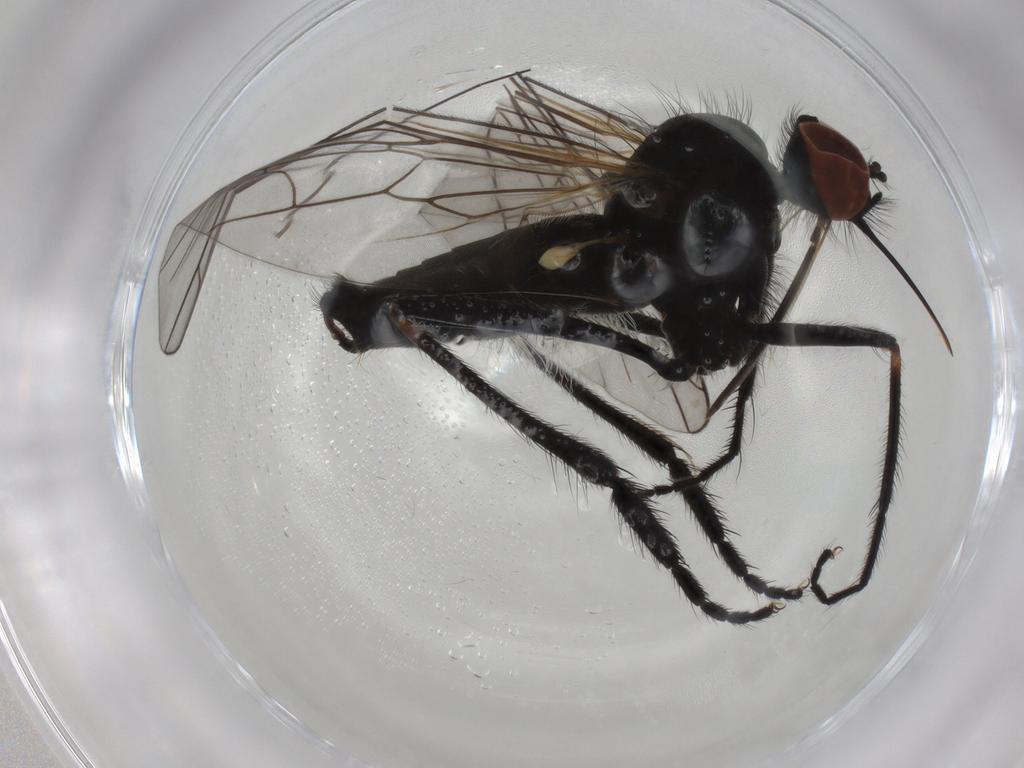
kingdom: Animalia
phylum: Arthropoda
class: Insecta
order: Diptera
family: Empididae
